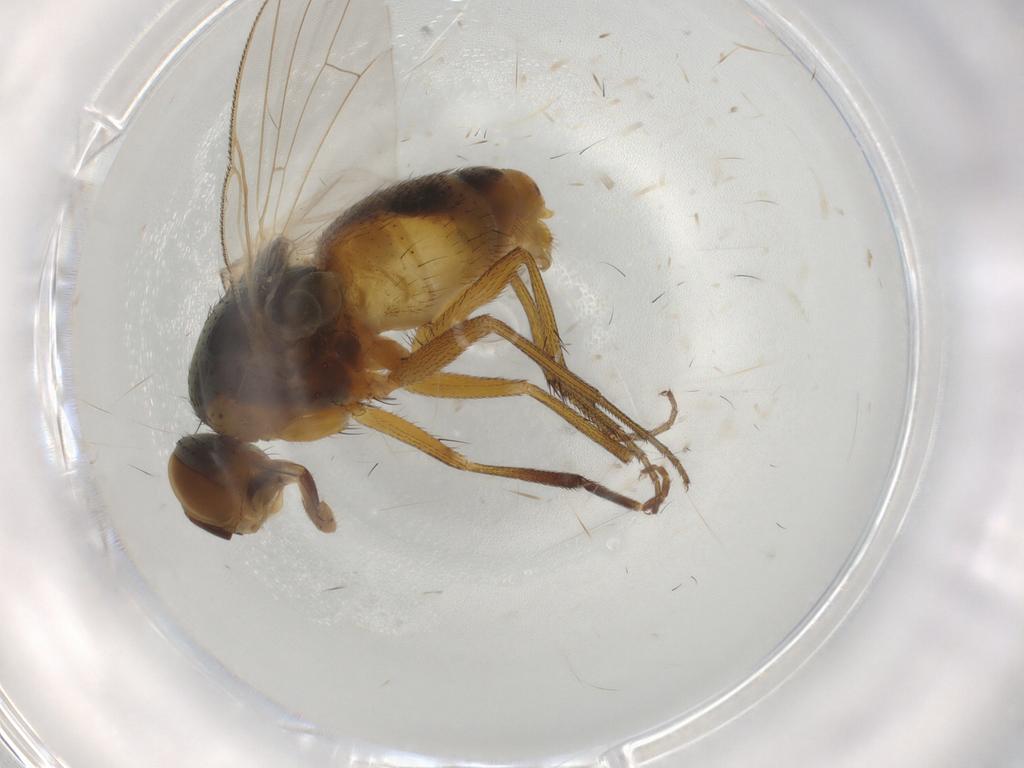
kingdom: Animalia
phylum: Arthropoda
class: Insecta
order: Diptera
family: Muscidae
